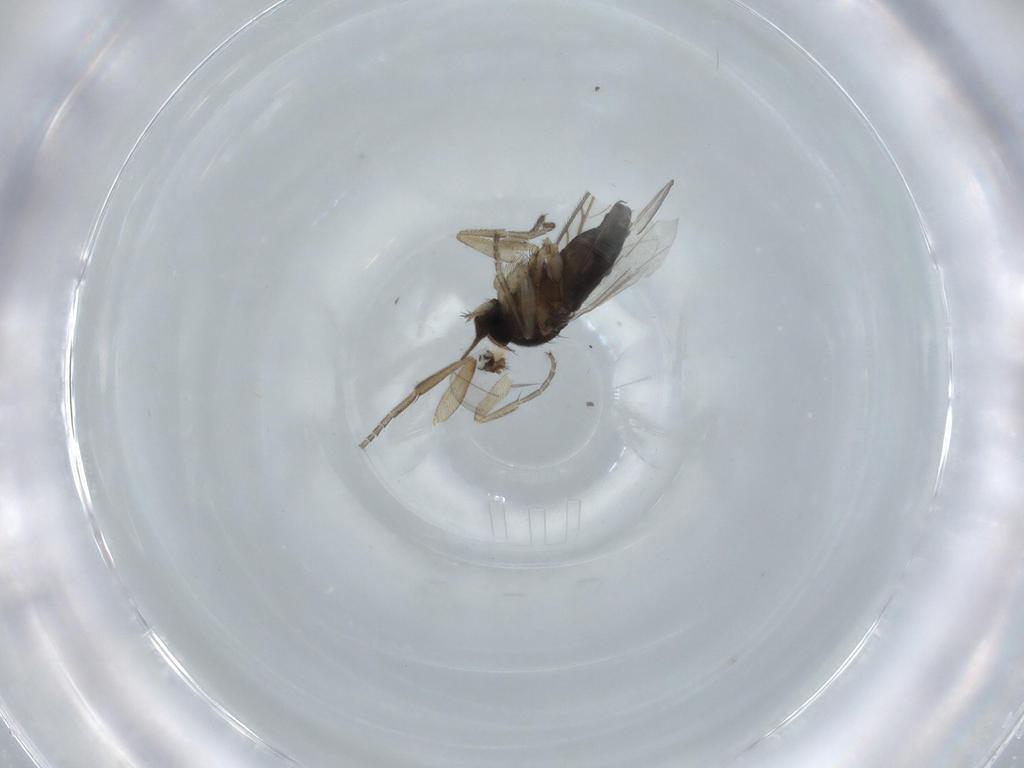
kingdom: Animalia
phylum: Arthropoda
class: Insecta
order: Diptera
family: Phoridae
